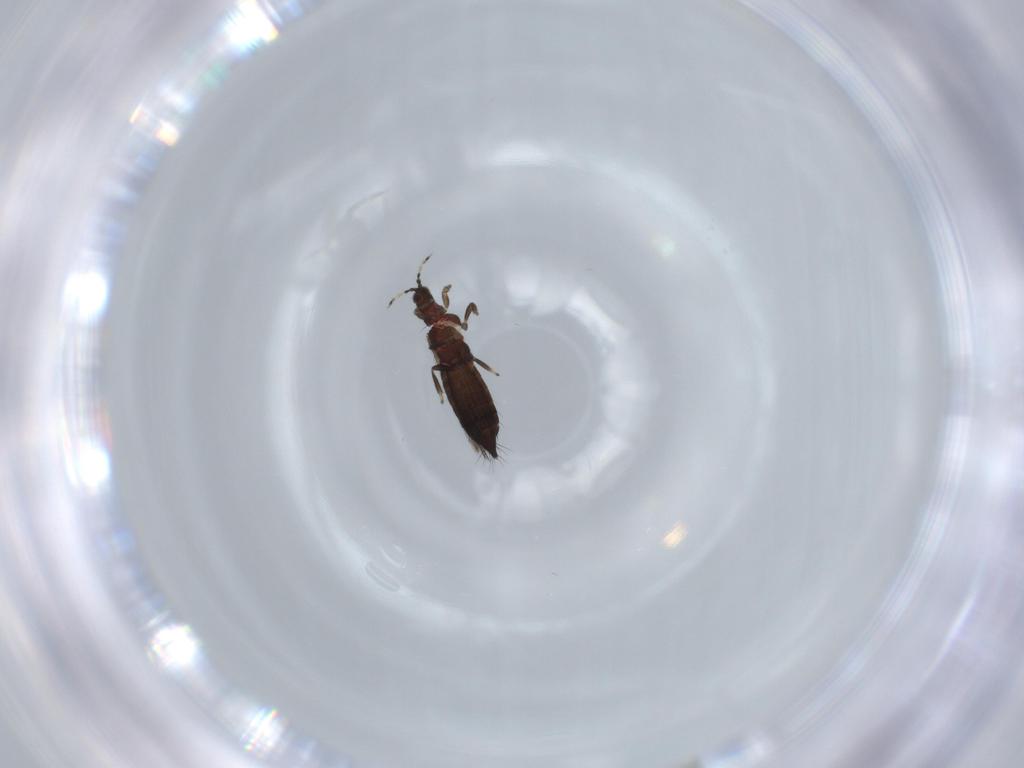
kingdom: Animalia
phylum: Arthropoda
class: Insecta
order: Thysanoptera
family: Thripidae
